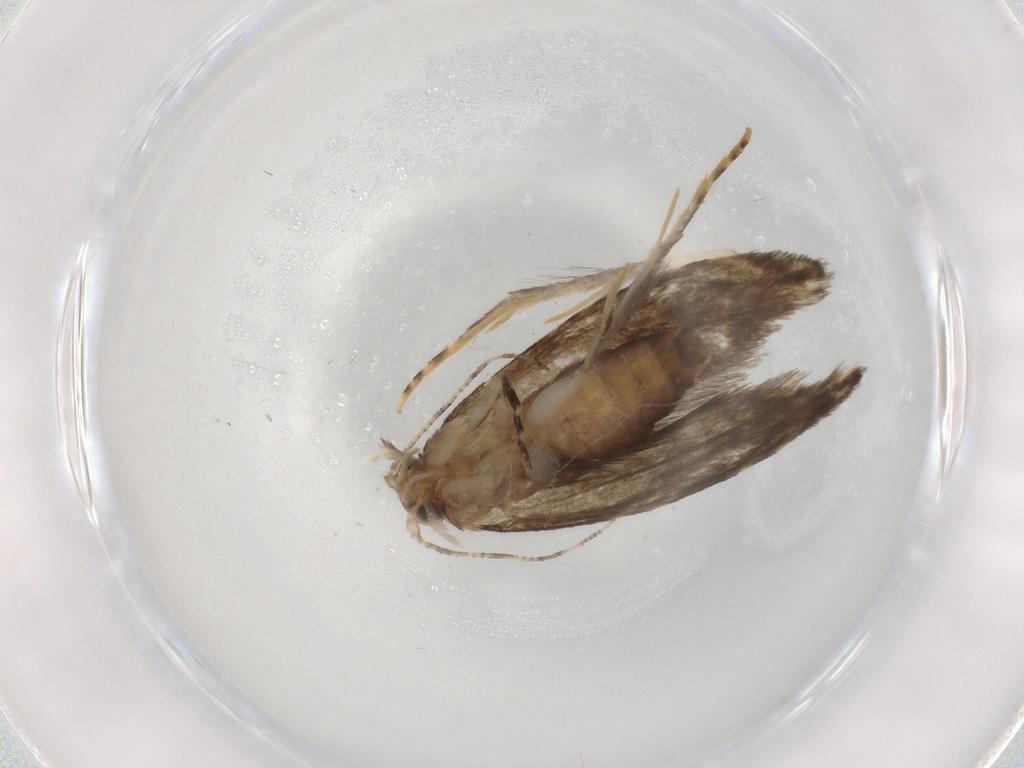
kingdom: Animalia
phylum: Arthropoda
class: Insecta
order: Lepidoptera
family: Tineidae
